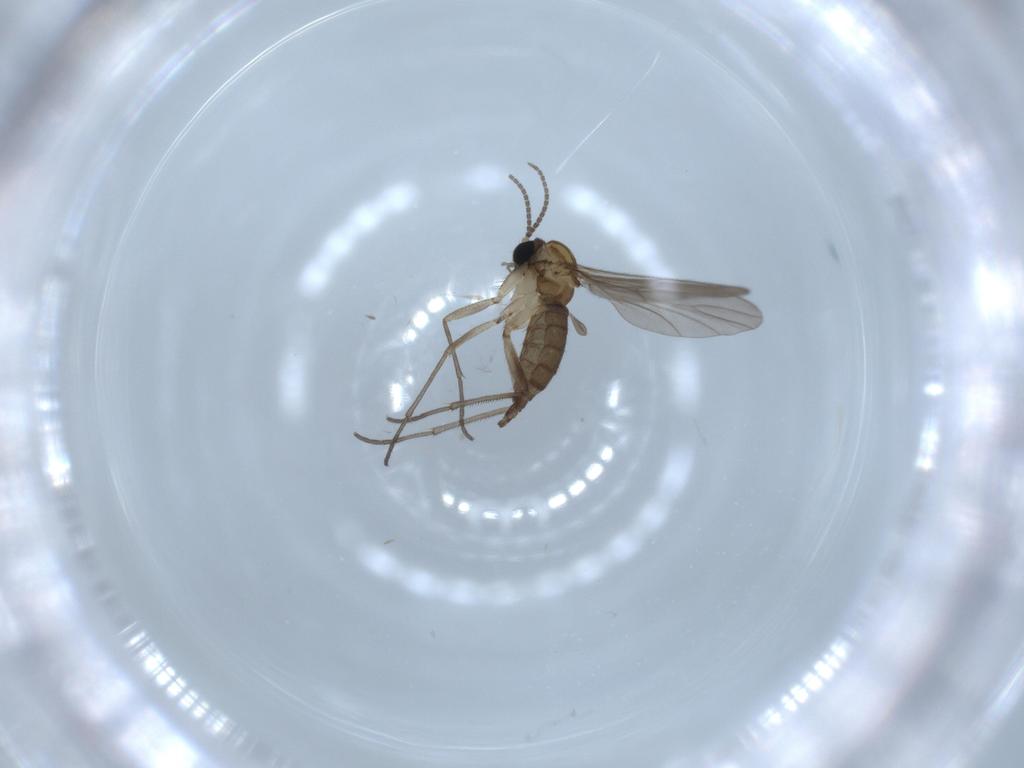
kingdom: Animalia
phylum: Arthropoda
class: Insecta
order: Diptera
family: Sciaridae
